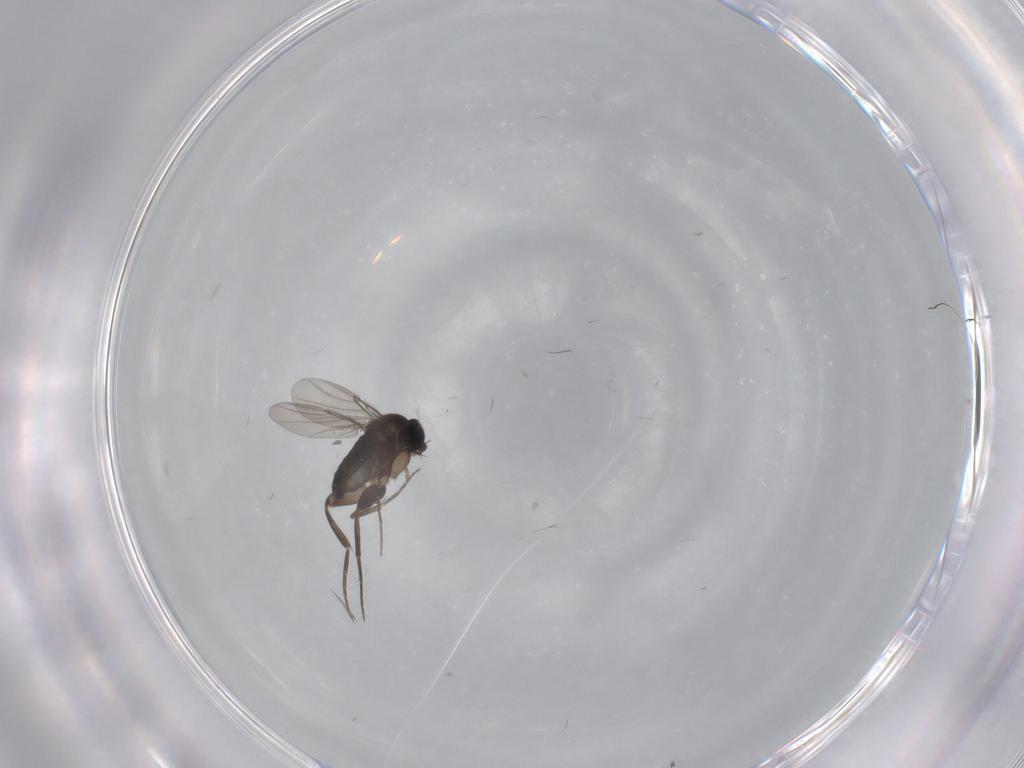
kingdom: Animalia
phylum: Arthropoda
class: Insecta
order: Diptera
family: Phoridae
